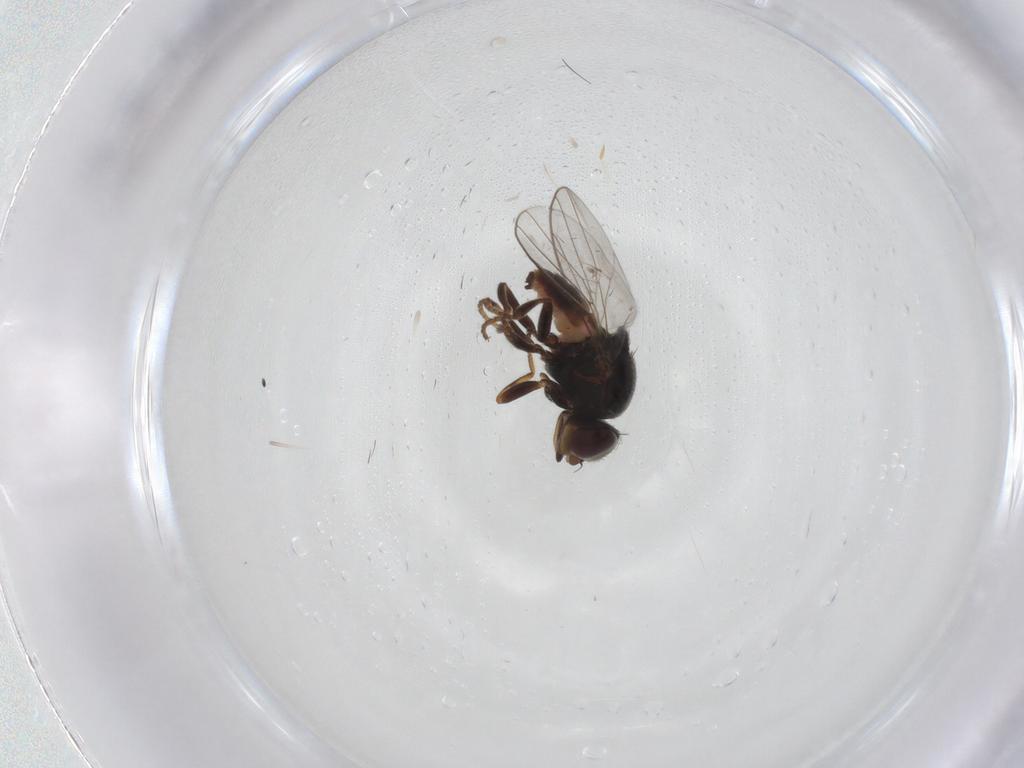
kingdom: Animalia
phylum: Arthropoda
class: Insecta
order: Diptera
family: Chloropidae
